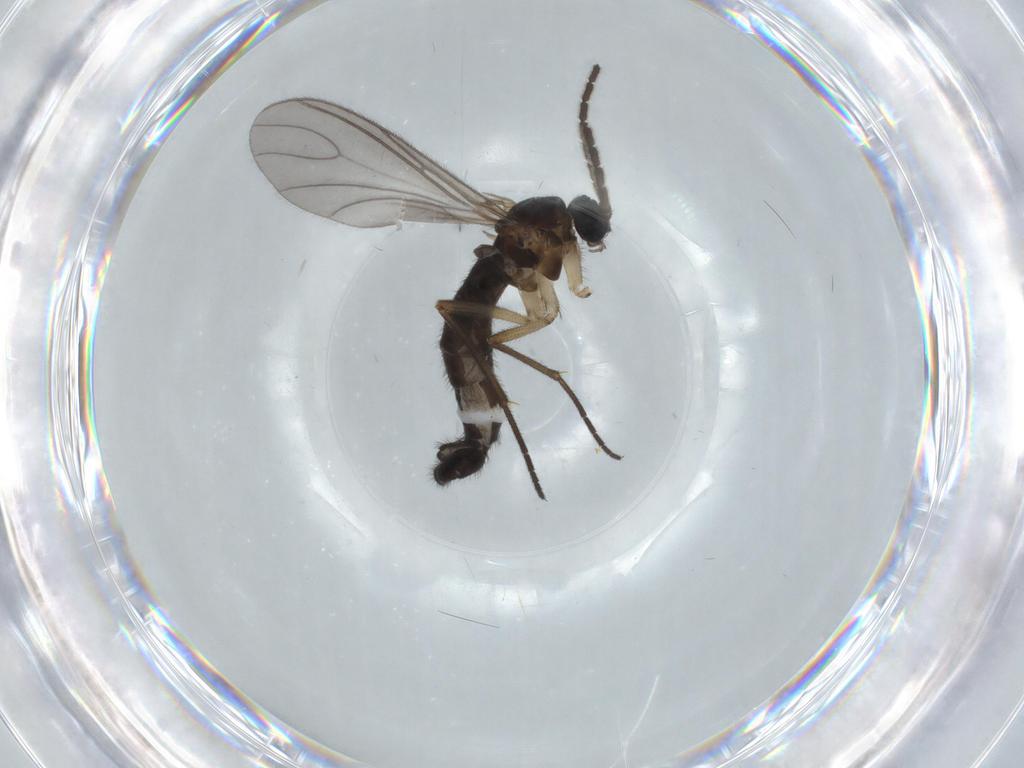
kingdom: Animalia
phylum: Arthropoda
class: Insecta
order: Diptera
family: Sciaridae
